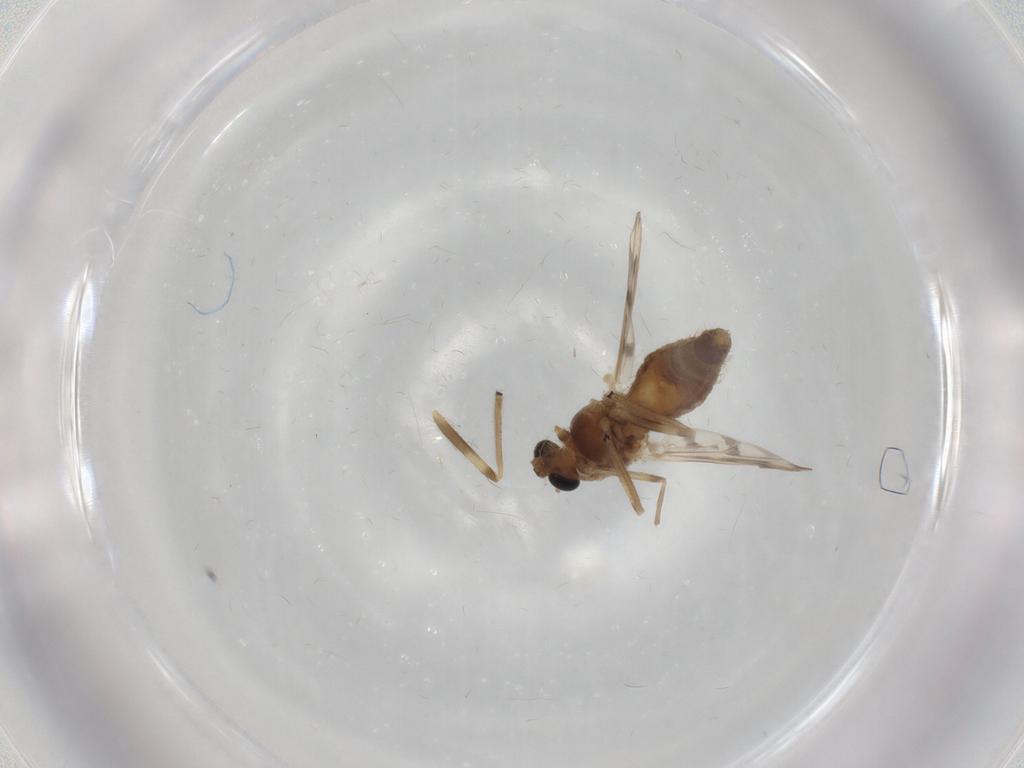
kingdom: Animalia
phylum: Arthropoda
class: Insecta
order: Diptera
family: Chironomidae
